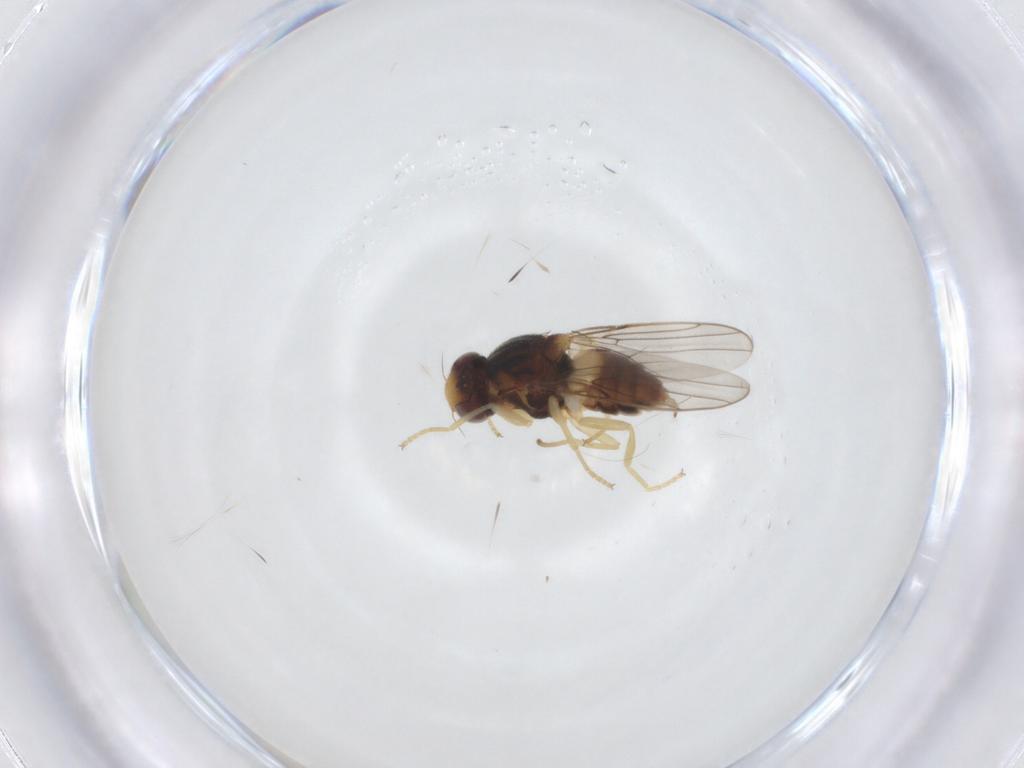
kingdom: Animalia
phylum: Arthropoda
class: Insecta
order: Diptera
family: Chloropidae
